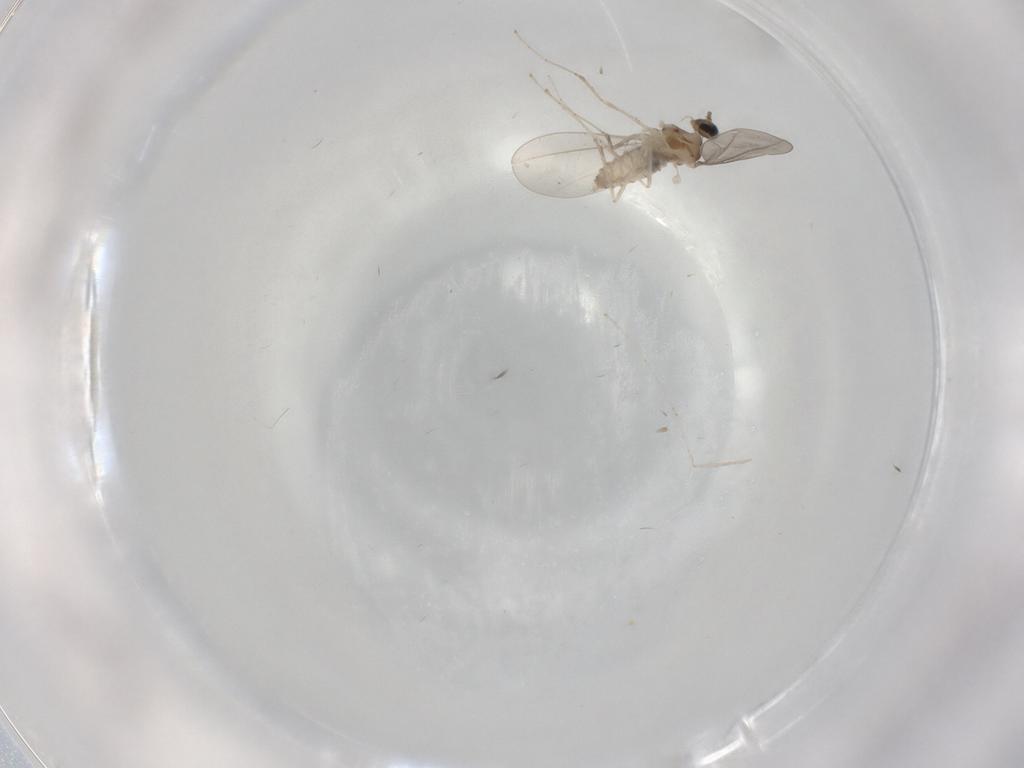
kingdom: Animalia
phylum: Arthropoda
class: Insecta
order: Diptera
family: Cecidomyiidae
